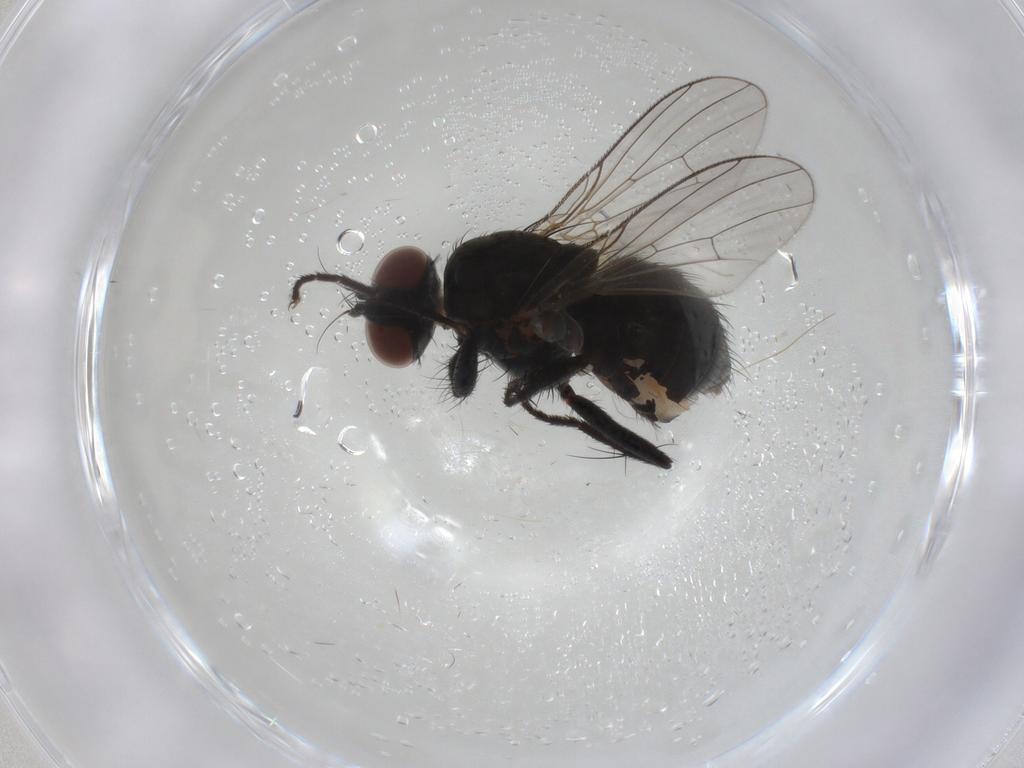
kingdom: Animalia
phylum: Arthropoda
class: Insecta
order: Diptera
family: Muscidae
